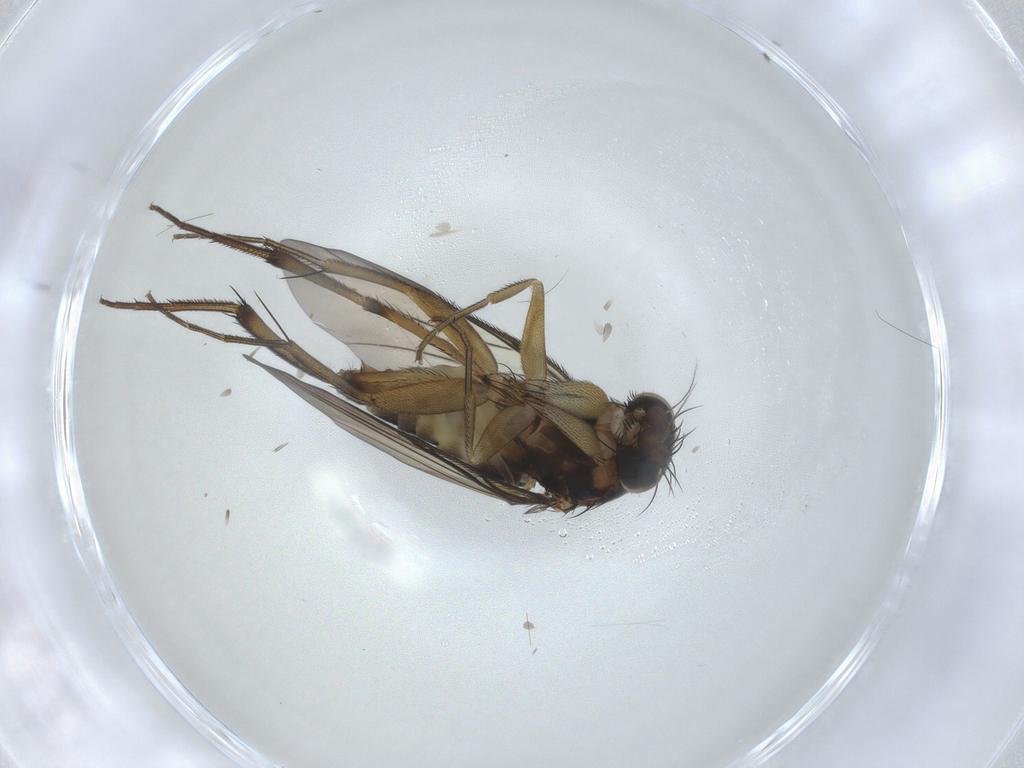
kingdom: Animalia
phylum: Arthropoda
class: Insecta
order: Diptera
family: Phoridae
